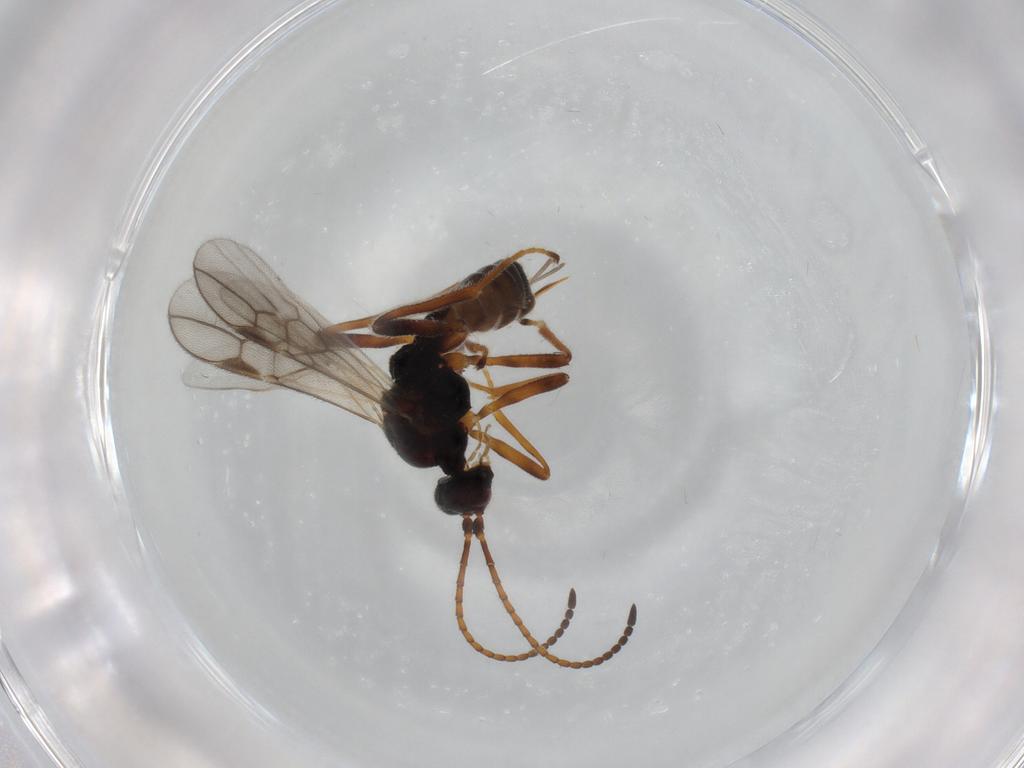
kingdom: Animalia
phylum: Arthropoda
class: Insecta
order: Hymenoptera
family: Braconidae
